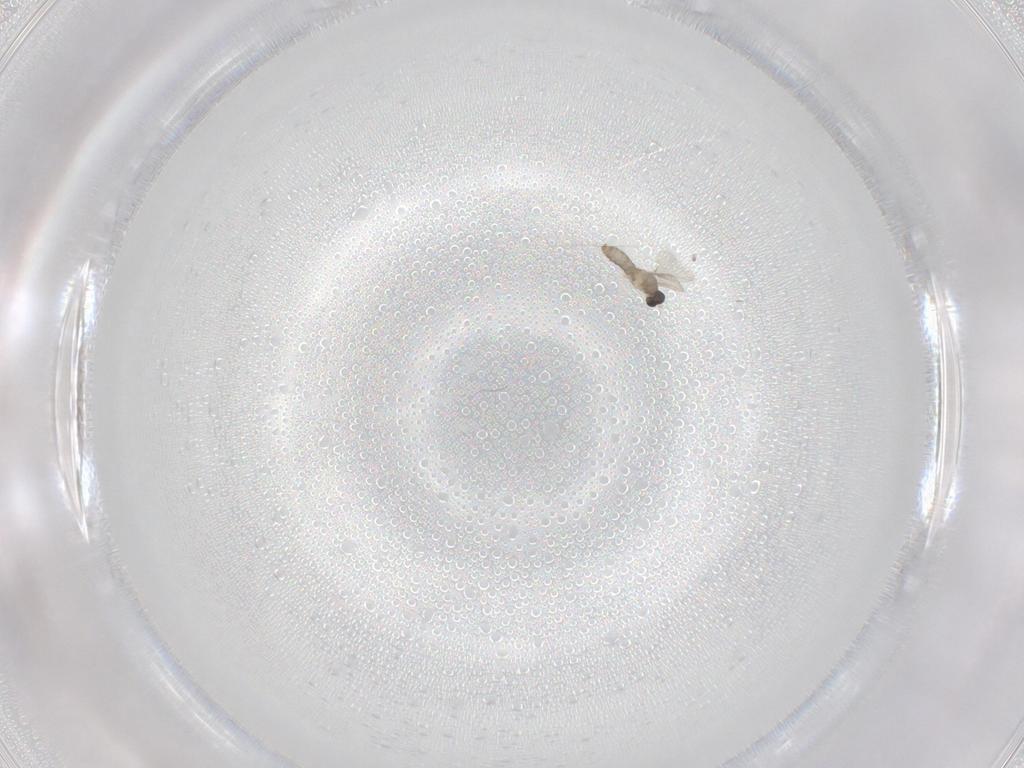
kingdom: Animalia
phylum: Arthropoda
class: Insecta
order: Diptera
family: Cecidomyiidae
